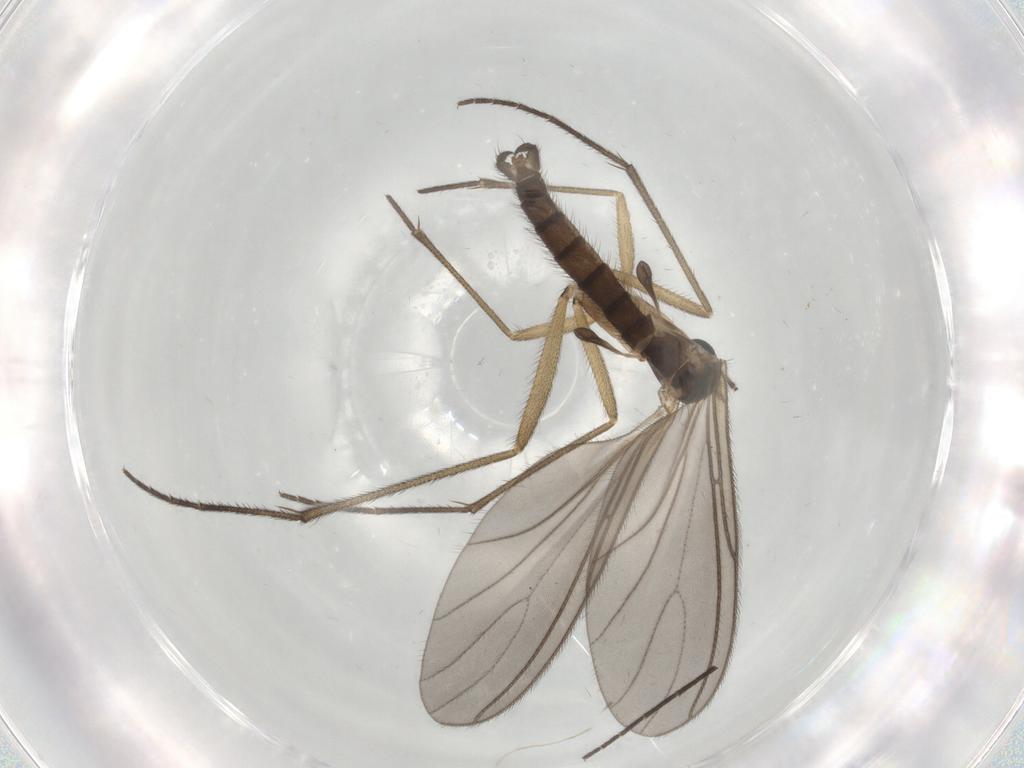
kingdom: Animalia
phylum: Arthropoda
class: Insecta
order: Diptera
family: Sciaridae
